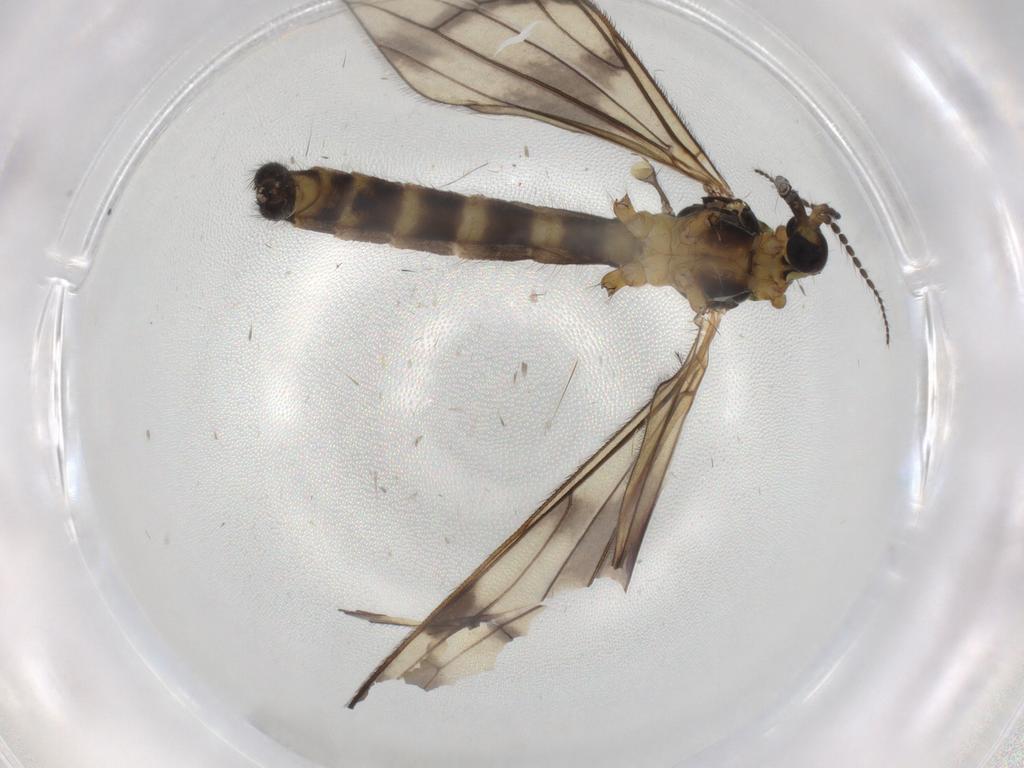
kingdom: Animalia
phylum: Arthropoda
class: Insecta
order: Diptera
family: Limoniidae
